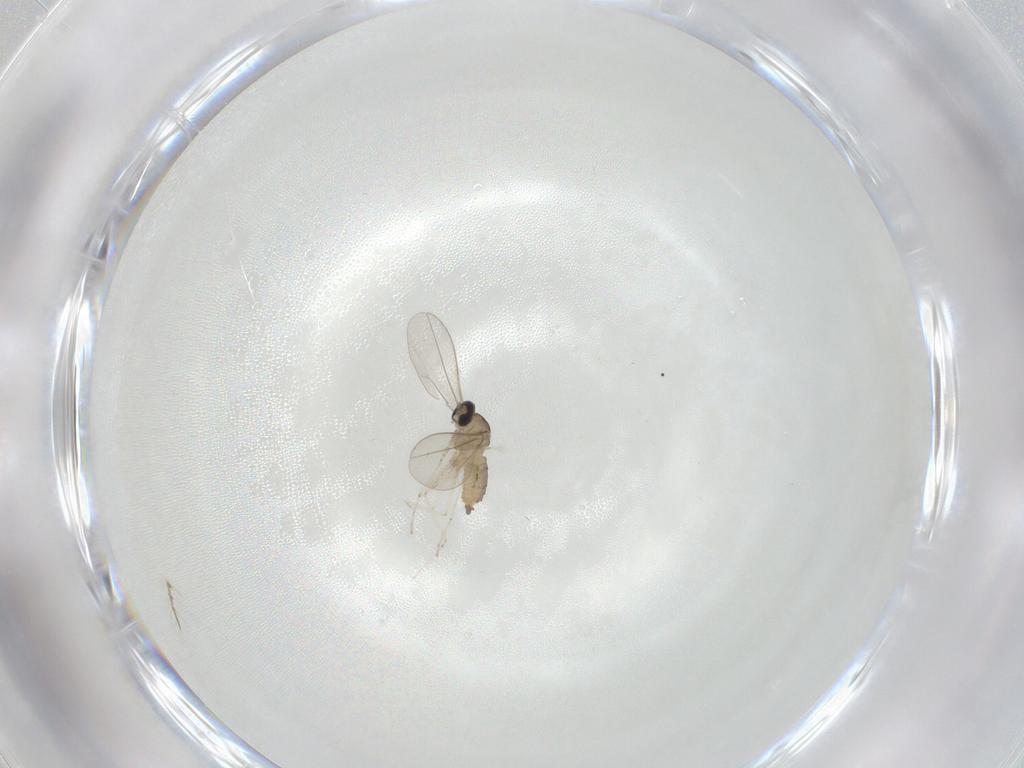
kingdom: Animalia
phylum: Arthropoda
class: Insecta
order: Diptera
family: Cecidomyiidae
